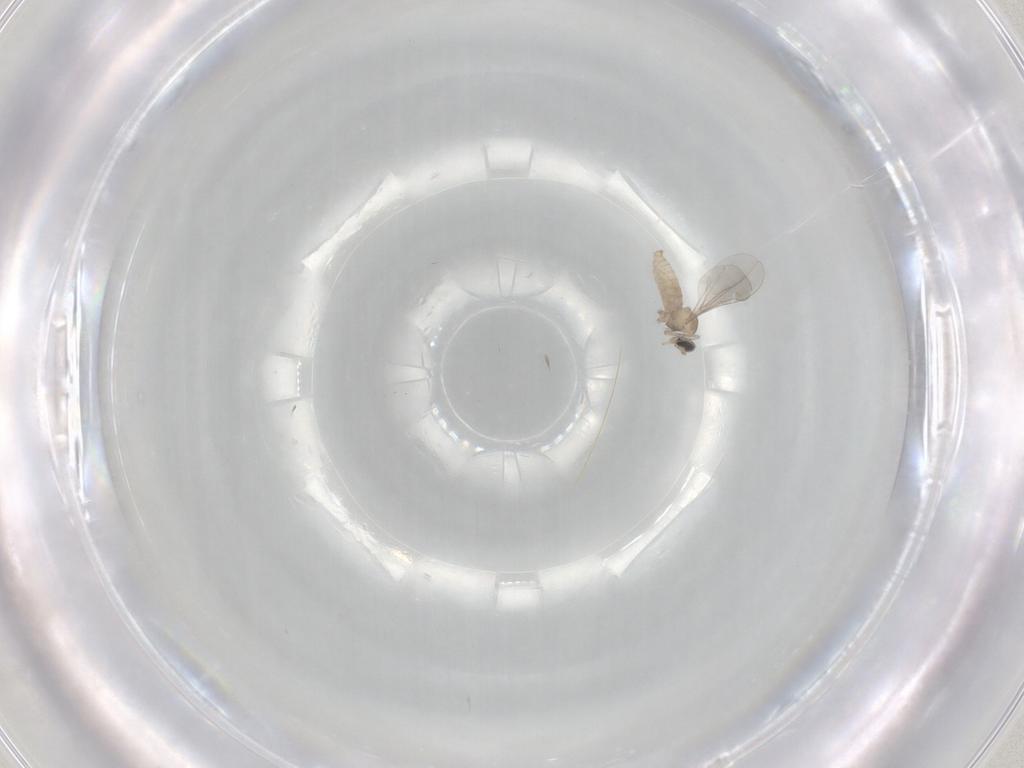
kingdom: Animalia
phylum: Arthropoda
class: Insecta
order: Diptera
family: Cecidomyiidae
